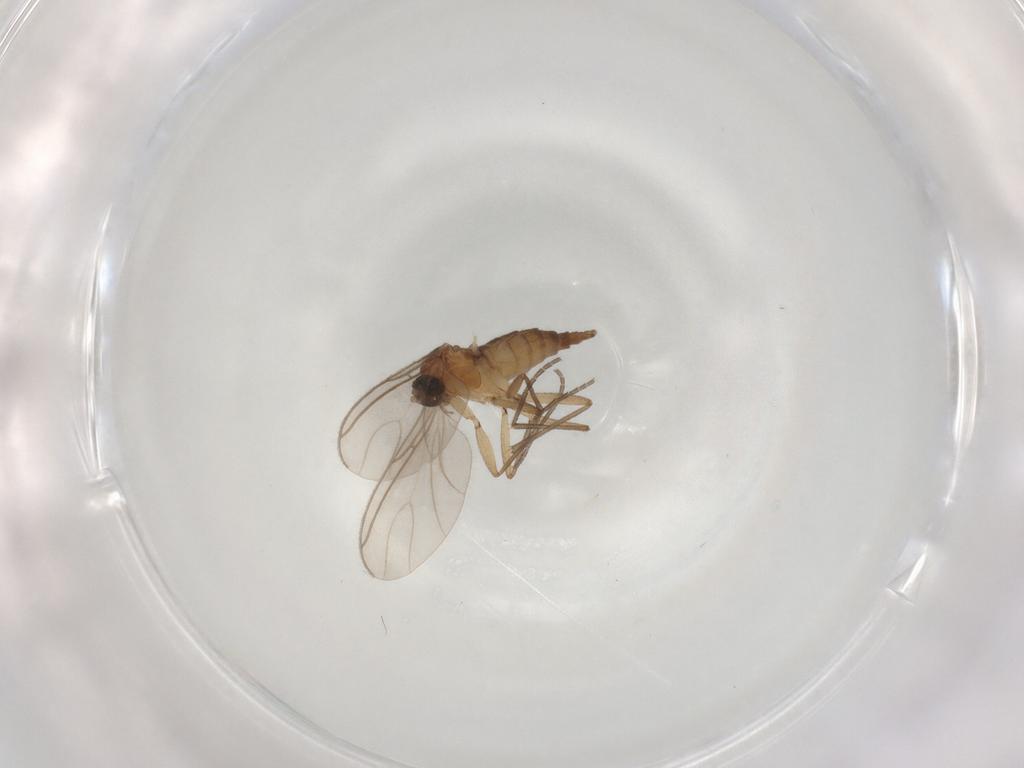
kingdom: Animalia
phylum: Arthropoda
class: Insecta
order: Diptera
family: Sciaridae
